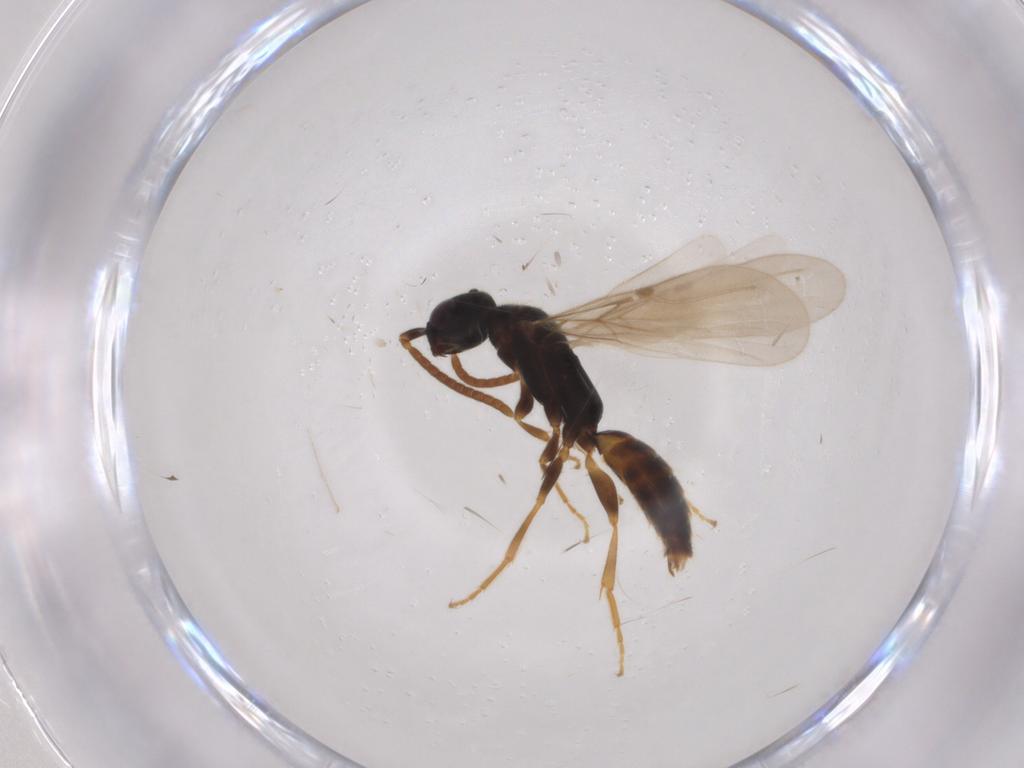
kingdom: Animalia
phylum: Arthropoda
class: Insecta
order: Hymenoptera
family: Bethylidae
